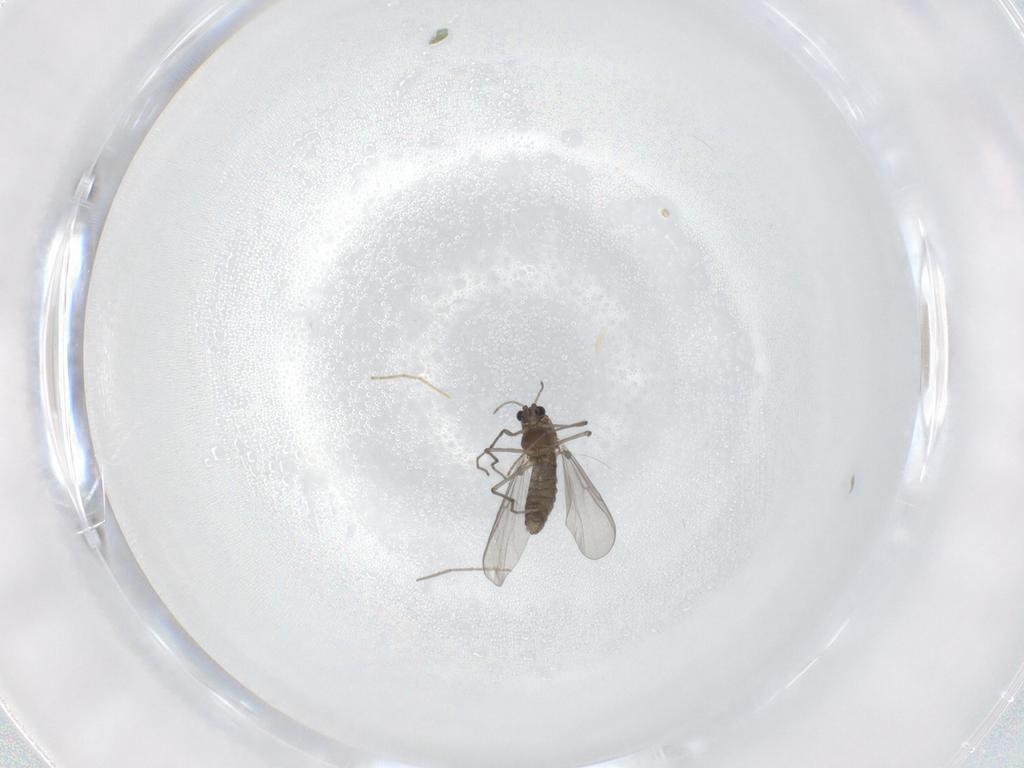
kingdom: Animalia
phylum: Arthropoda
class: Insecta
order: Diptera
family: Chironomidae
